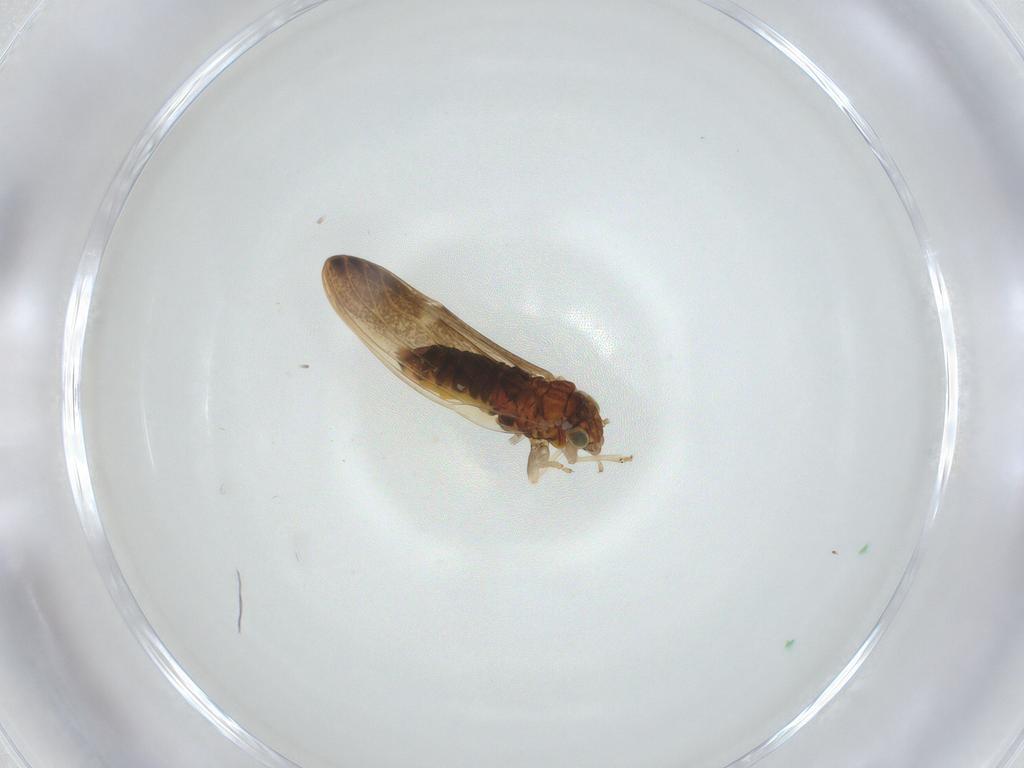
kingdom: Animalia
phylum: Arthropoda
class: Insecta
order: Hemiptera
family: Aphalaridae
